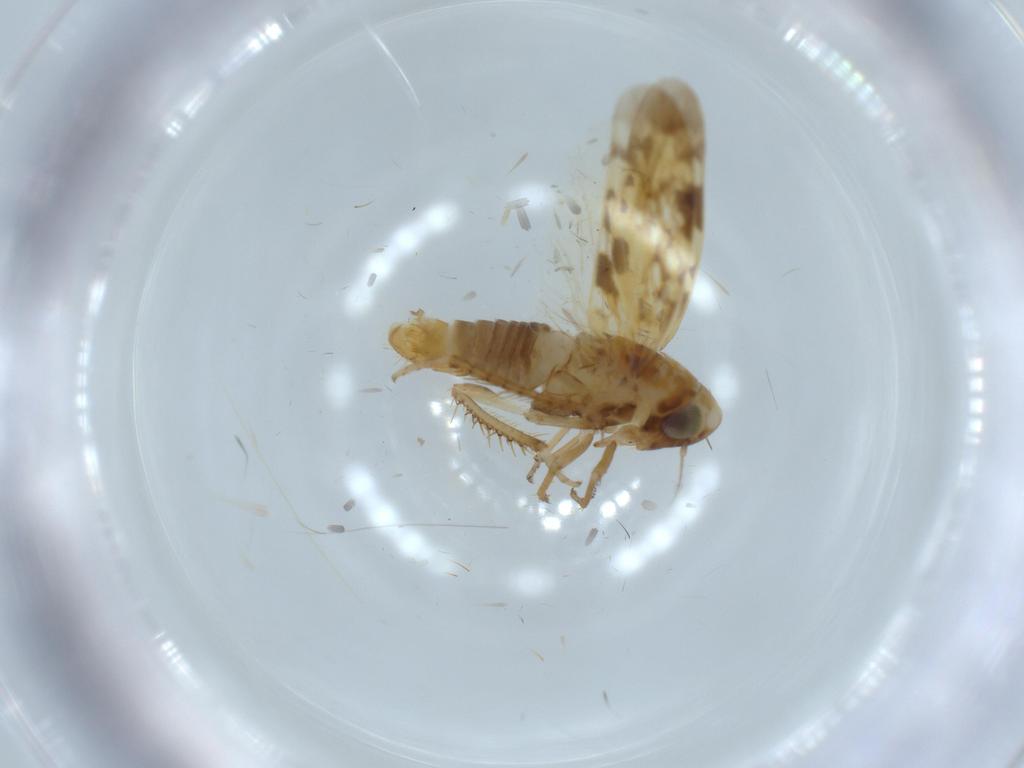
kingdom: Animalia
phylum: Arthropoda
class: Insecta
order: Hemiptera
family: Cicadellidae
